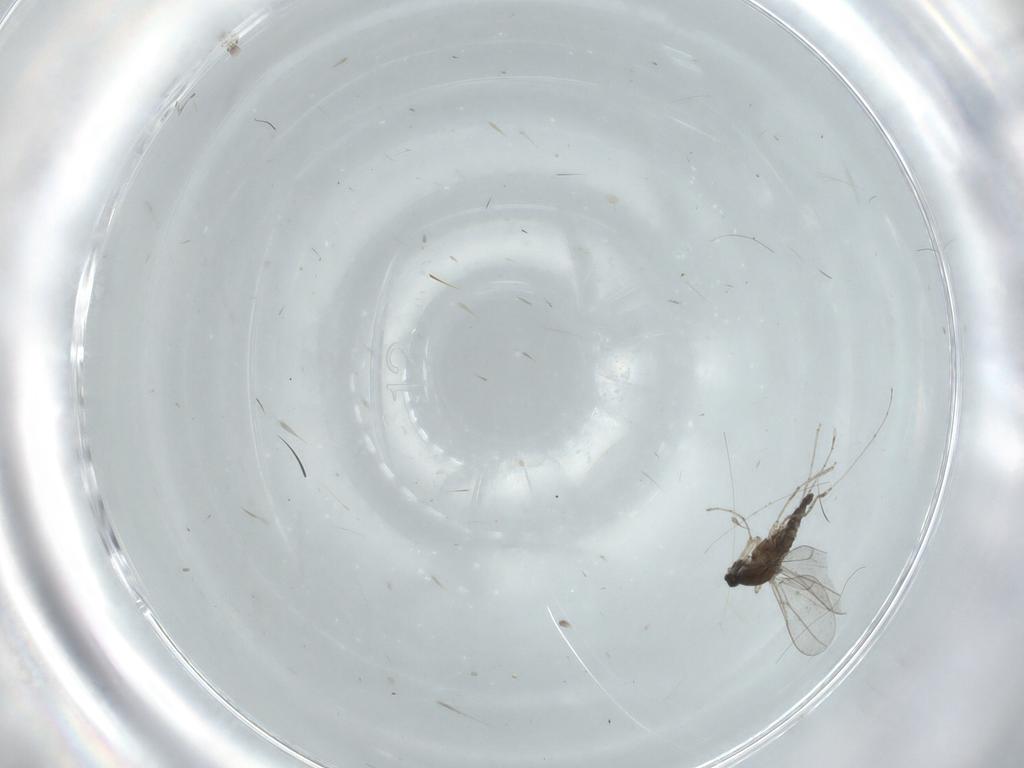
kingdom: Animalia
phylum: Arthropoda
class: Insecta
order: Diptera
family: Cecidomyiidae
